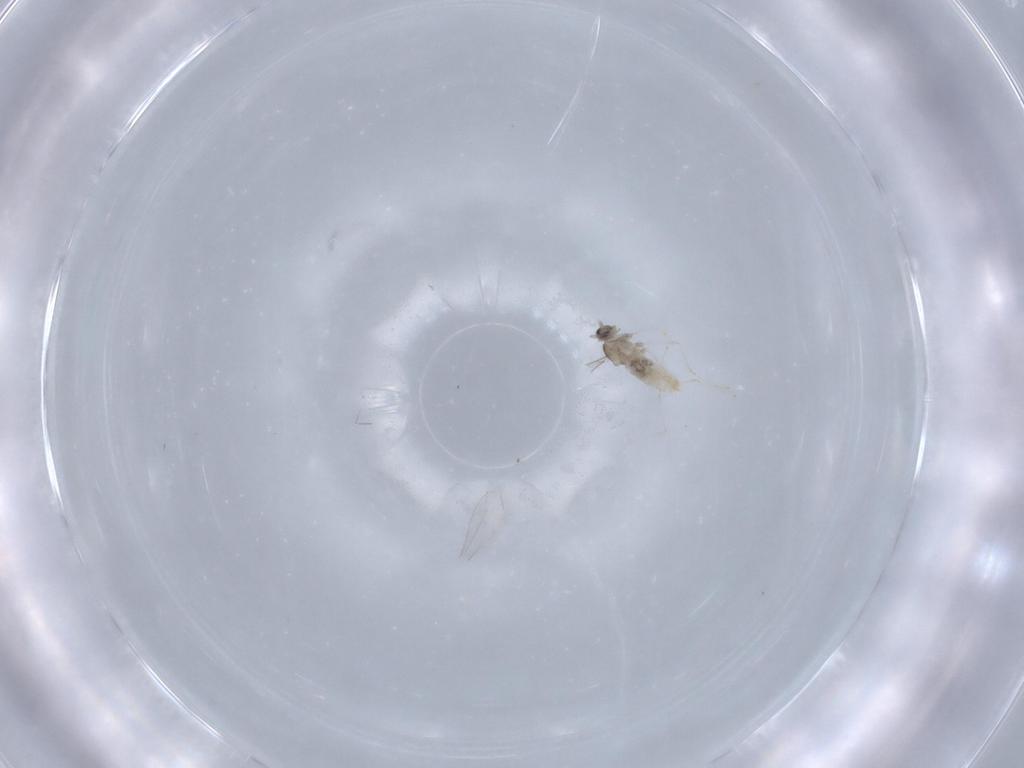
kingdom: Animalia
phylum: Arthropoda
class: Insecta
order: Diptera
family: Cecidomyiidae
